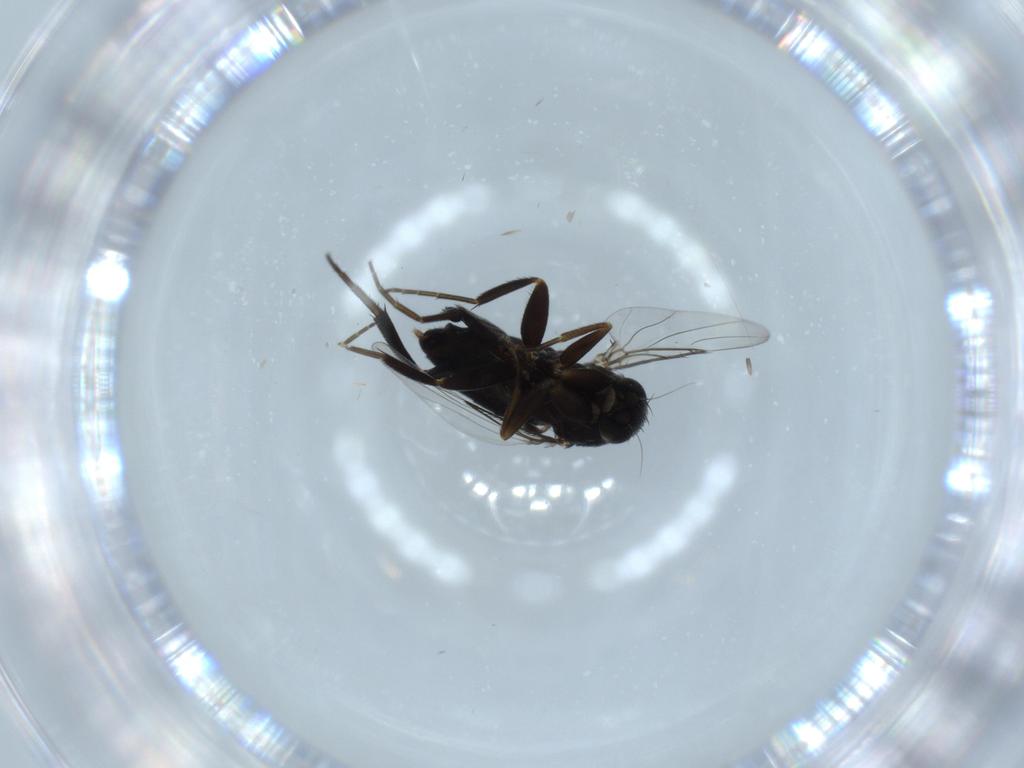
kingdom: Animalia
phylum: Arthropoda
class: Insecta
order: Diptera
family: Phoridae
